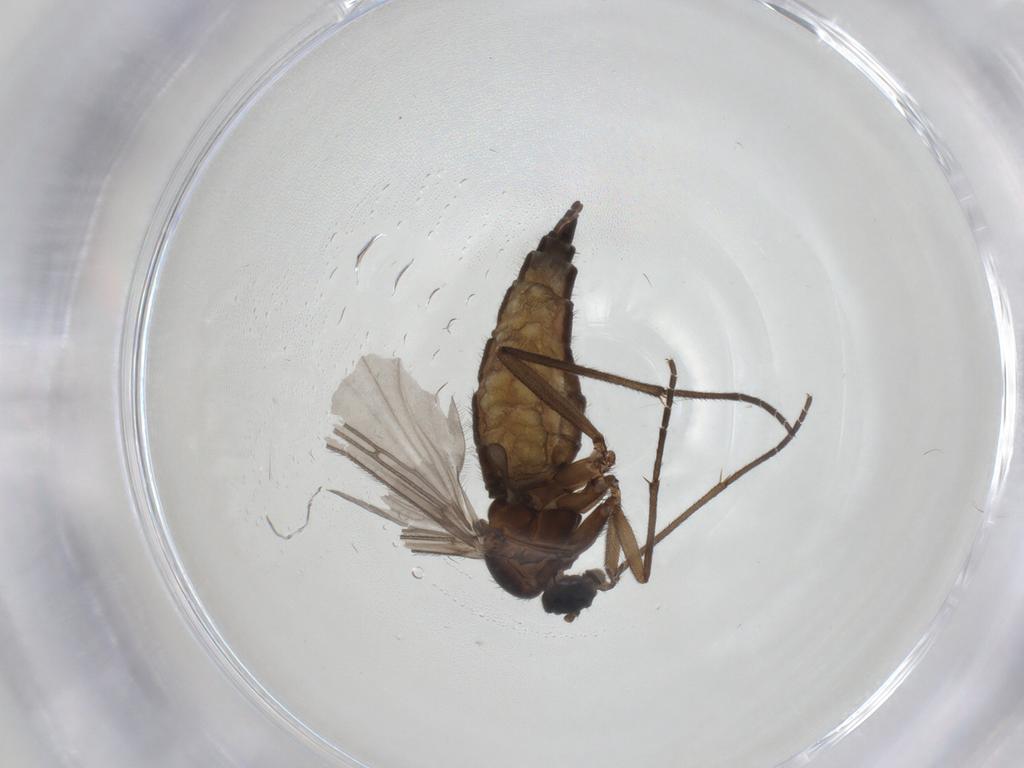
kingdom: Animalia
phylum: Arthropoda
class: Insecta
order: Diptera
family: Sciaridae
